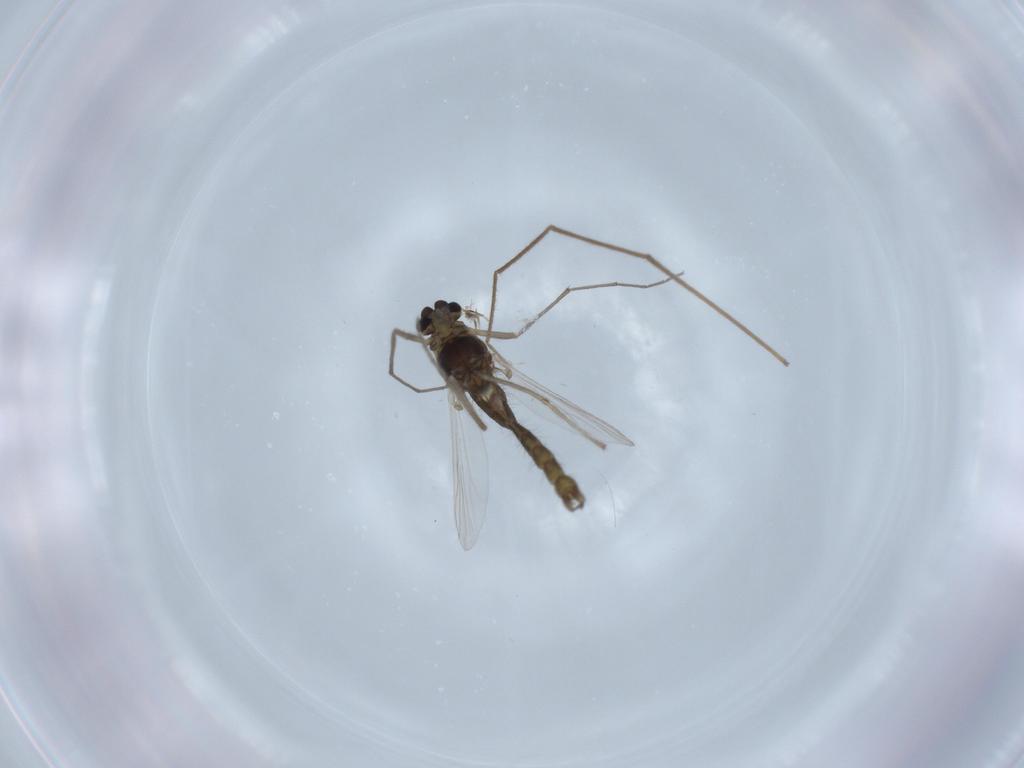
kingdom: Animalia
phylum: Arthropoda
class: Insecta
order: Diptera
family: Chironomidae
